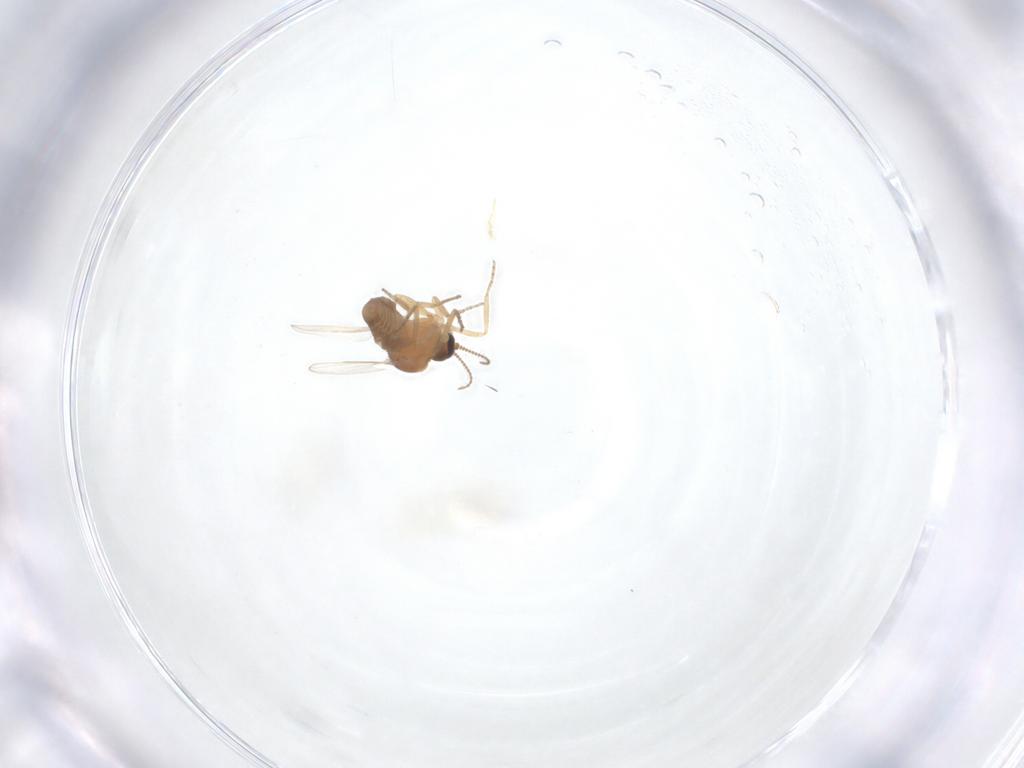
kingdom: Animalia
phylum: Arthropoda
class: Insecta
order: Diptera
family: Ceratopogonidae
